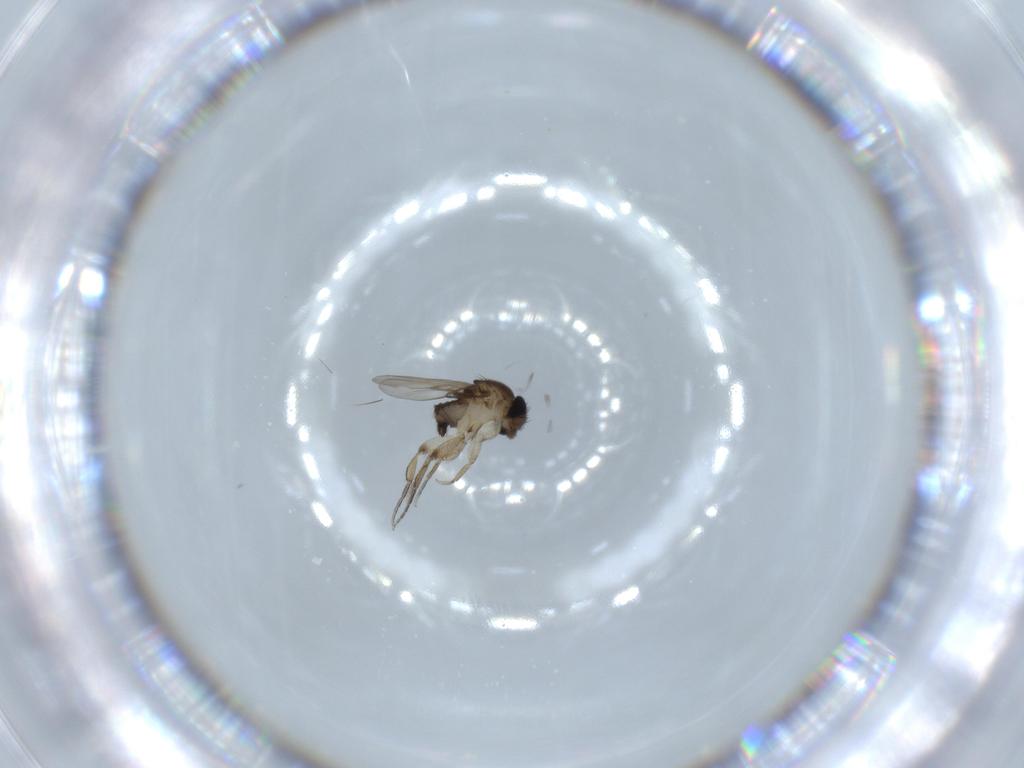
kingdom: Animalia
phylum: Arthropoda
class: Insecta
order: Diptera
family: Phoridae
